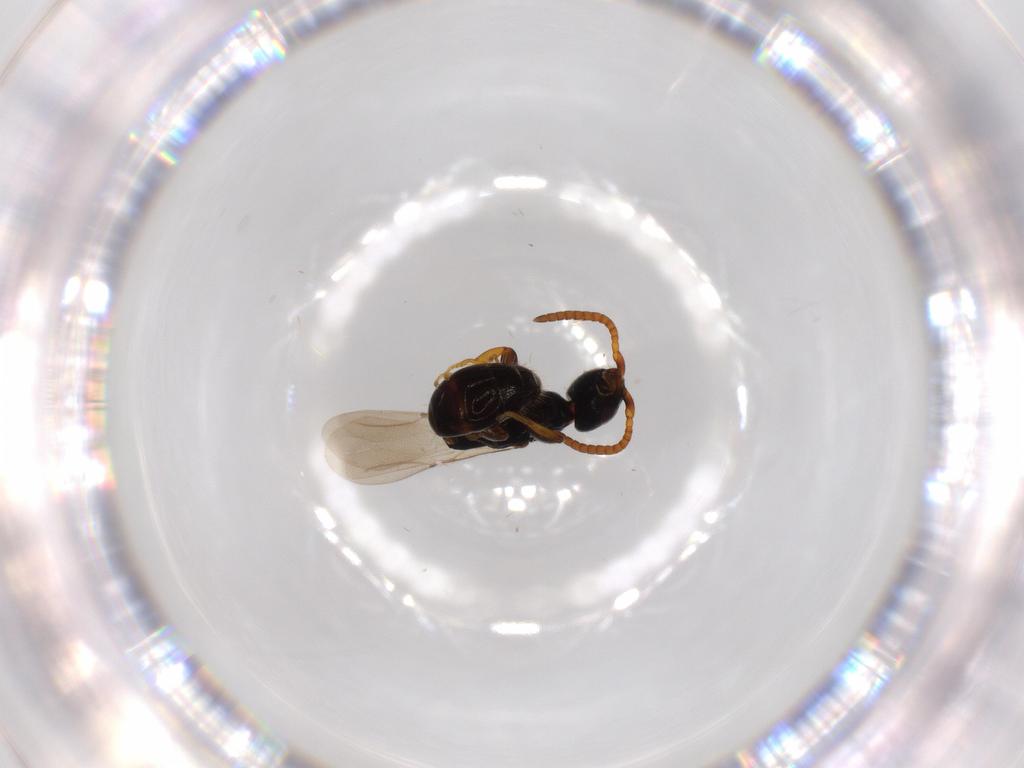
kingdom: Animalia
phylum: Arthropoda
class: Insecta
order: Hymenoptera
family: Bethylidae
